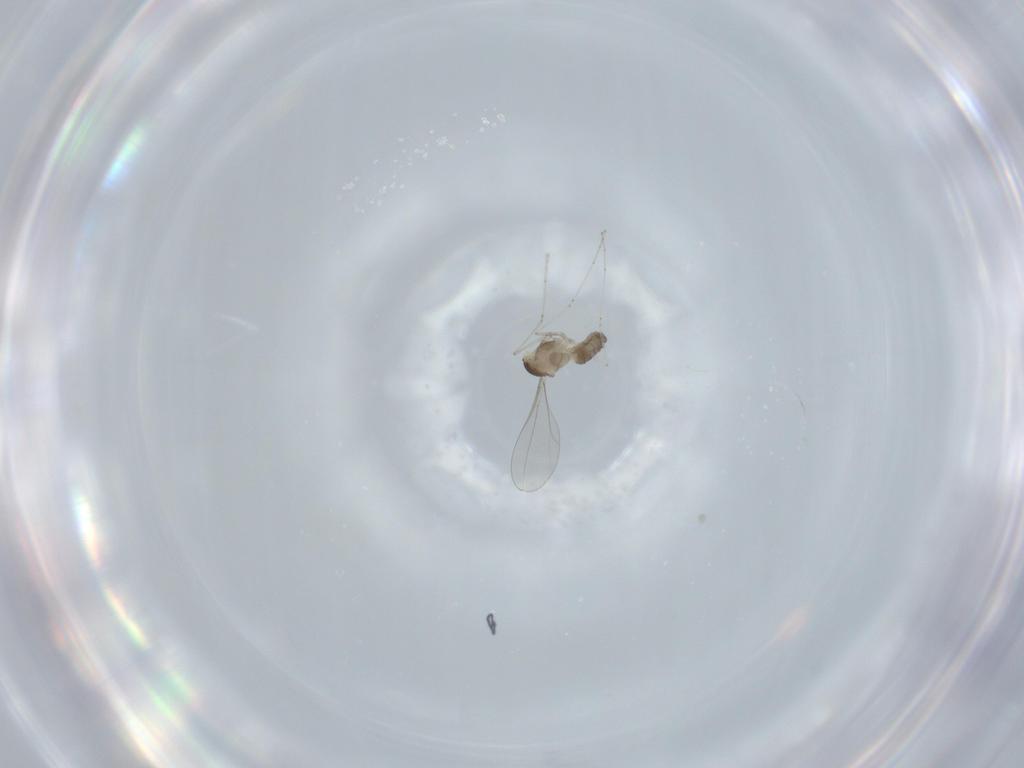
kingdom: Animalia
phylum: Arthropoda
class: Insecta
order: Diptera
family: Cecidomyiidae
